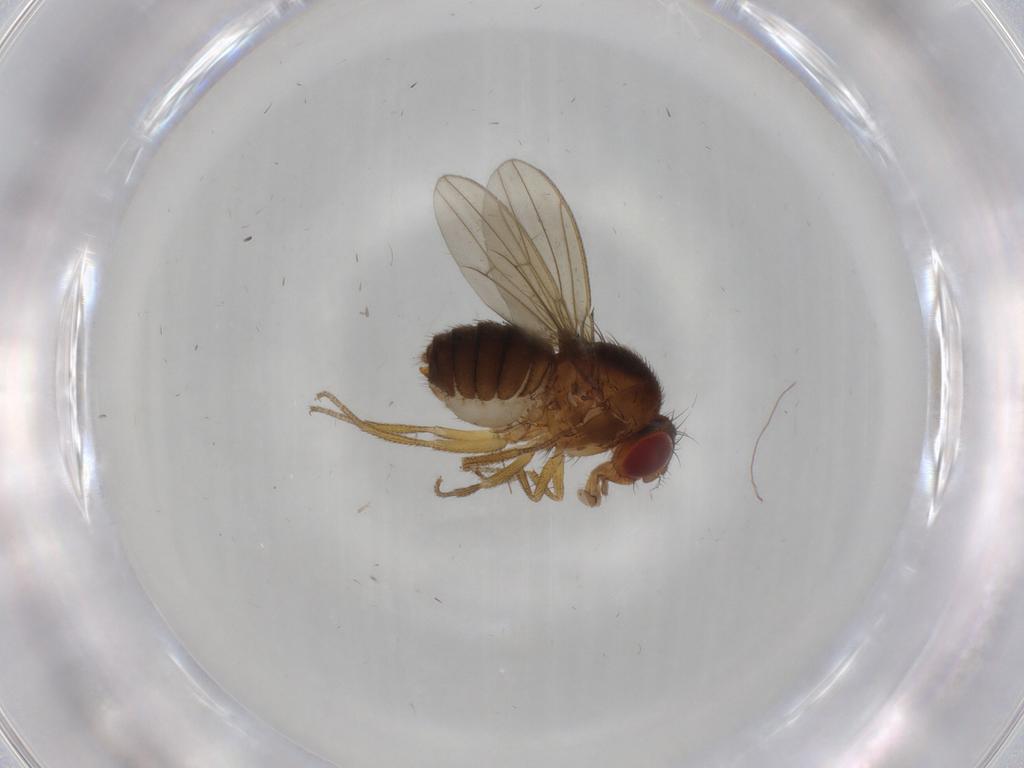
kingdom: Animalia
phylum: Arthropoda
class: Insecta
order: Diptera
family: Drosophilidae
